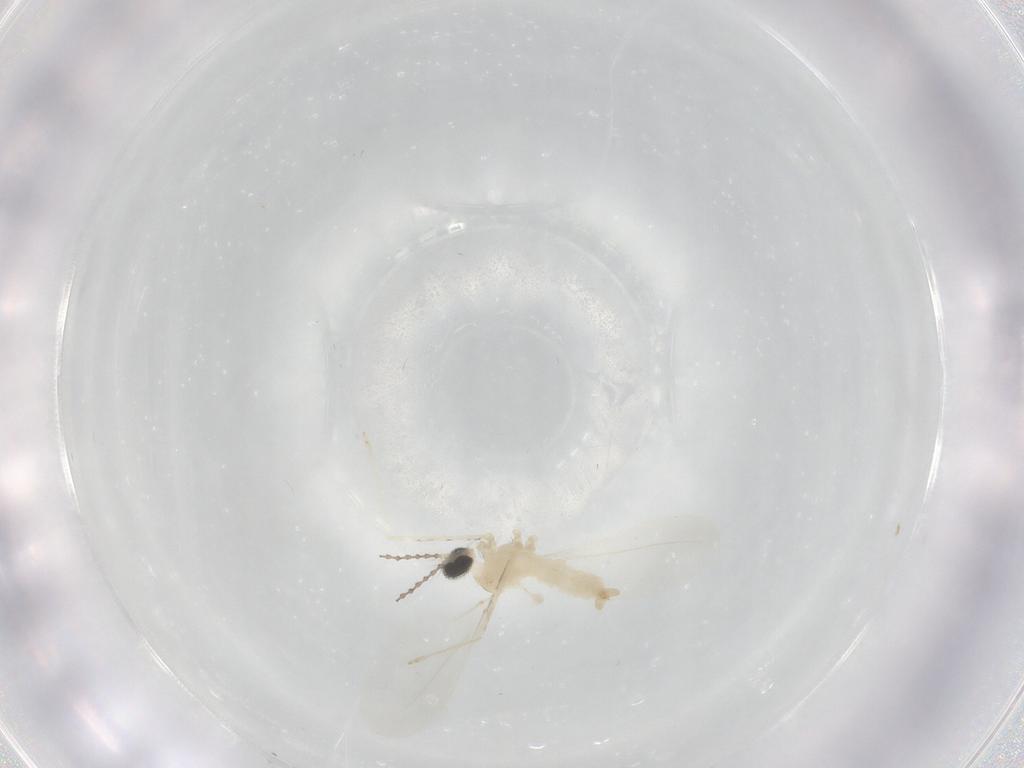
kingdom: Animalia
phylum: Arthropoda
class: Insecta
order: Diptera
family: Cecidomyiidae
